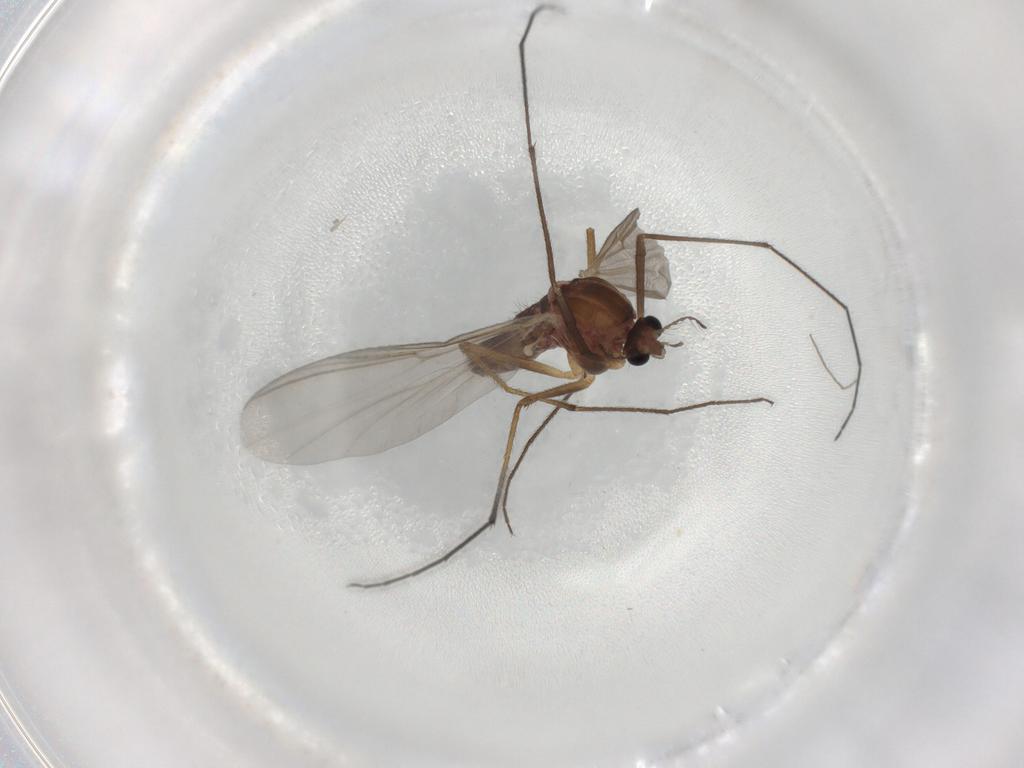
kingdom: Animalia
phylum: Arthropoda
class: Insecta
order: Diptera
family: Chironomidae
